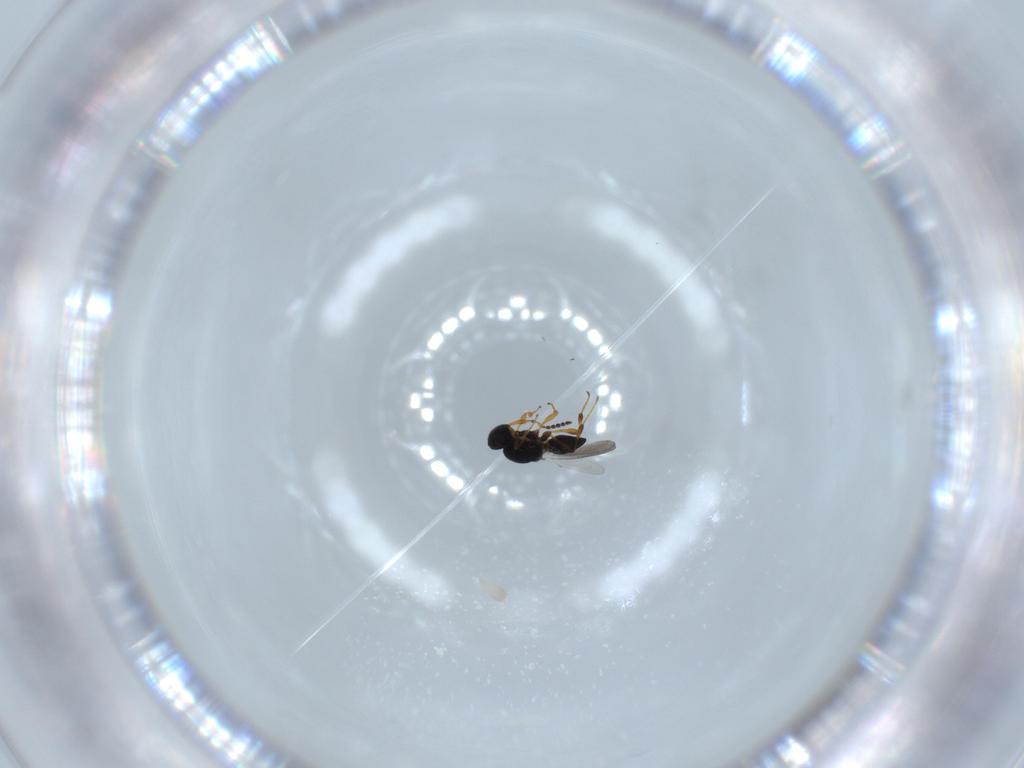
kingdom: Animalia
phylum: Arthropoda
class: Insecta
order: Hymenoptera
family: Platygastridae
